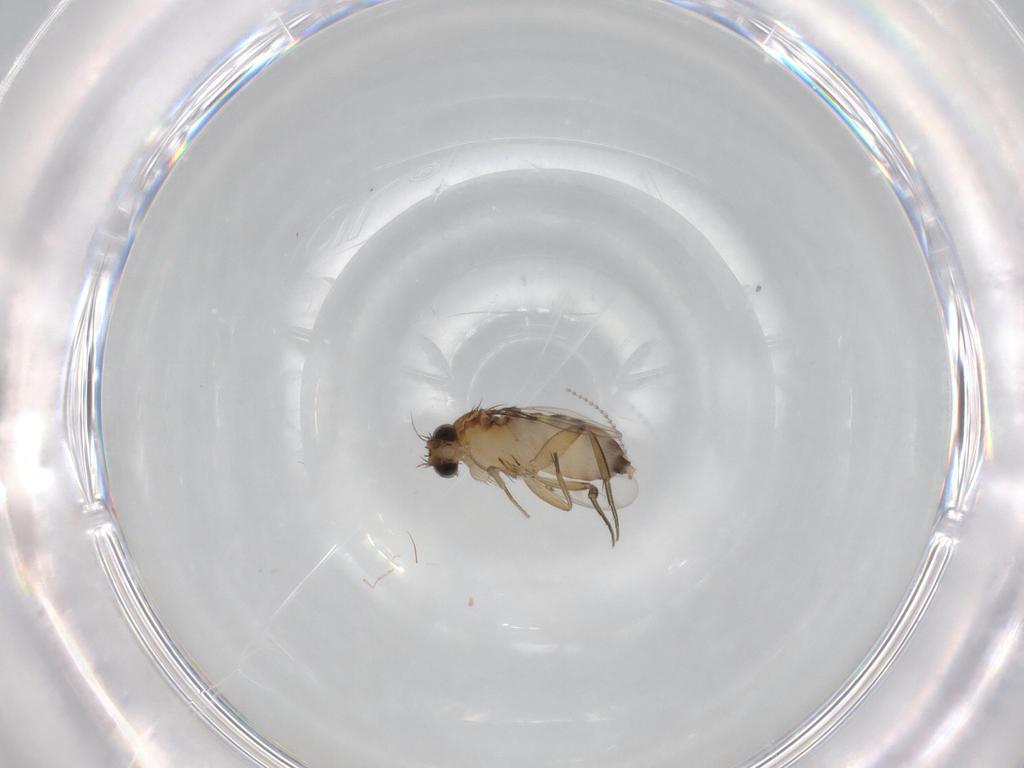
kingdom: Animalia
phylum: Arthropoda
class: Insecta
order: Diptera
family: Phoridae
